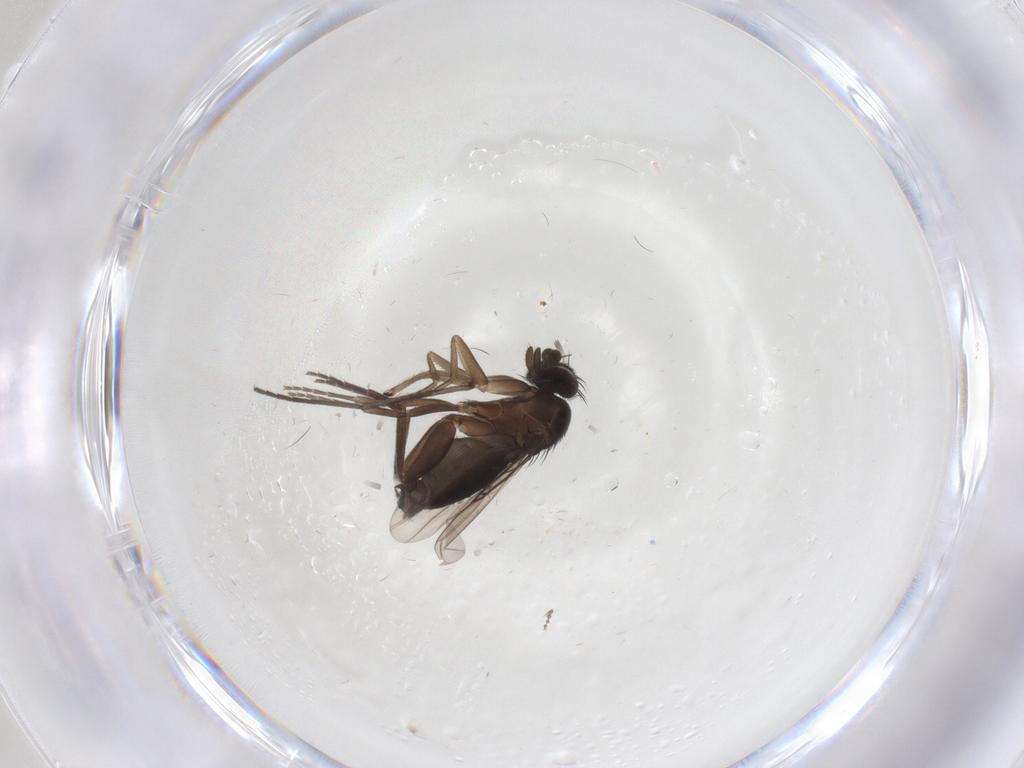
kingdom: Animalia
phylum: Arthropoda
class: Insecta
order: Diptera
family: Phoridae
